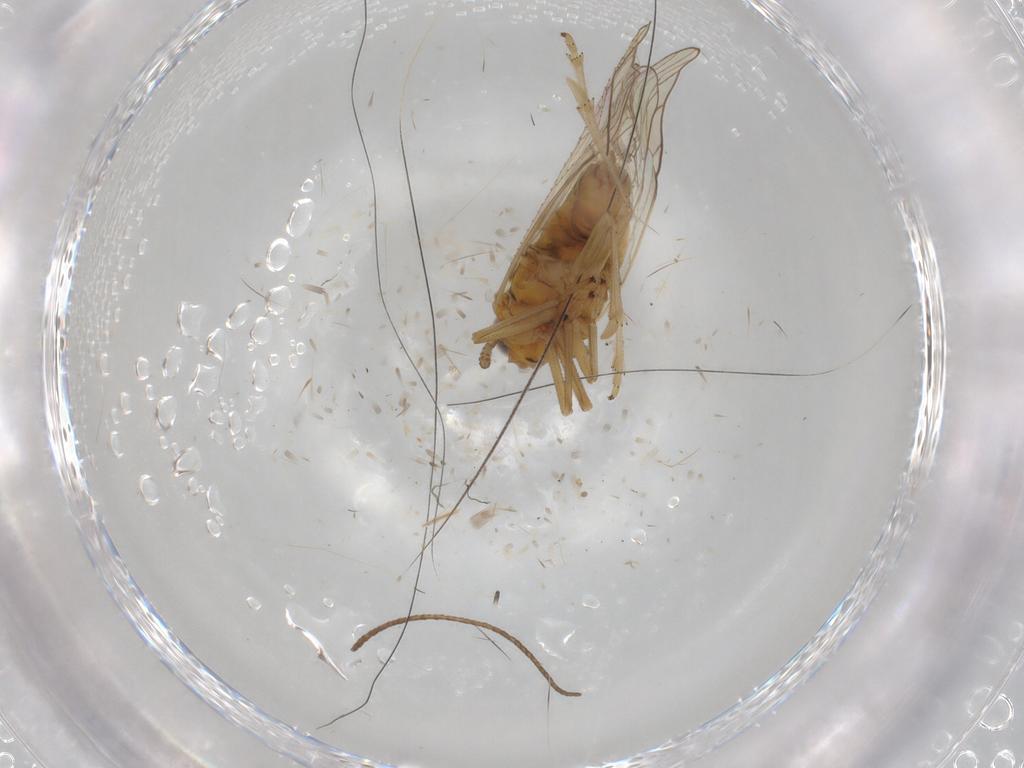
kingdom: Animalia
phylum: Arthropoda
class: Insecta
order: Hemiptera
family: Delphacidae
